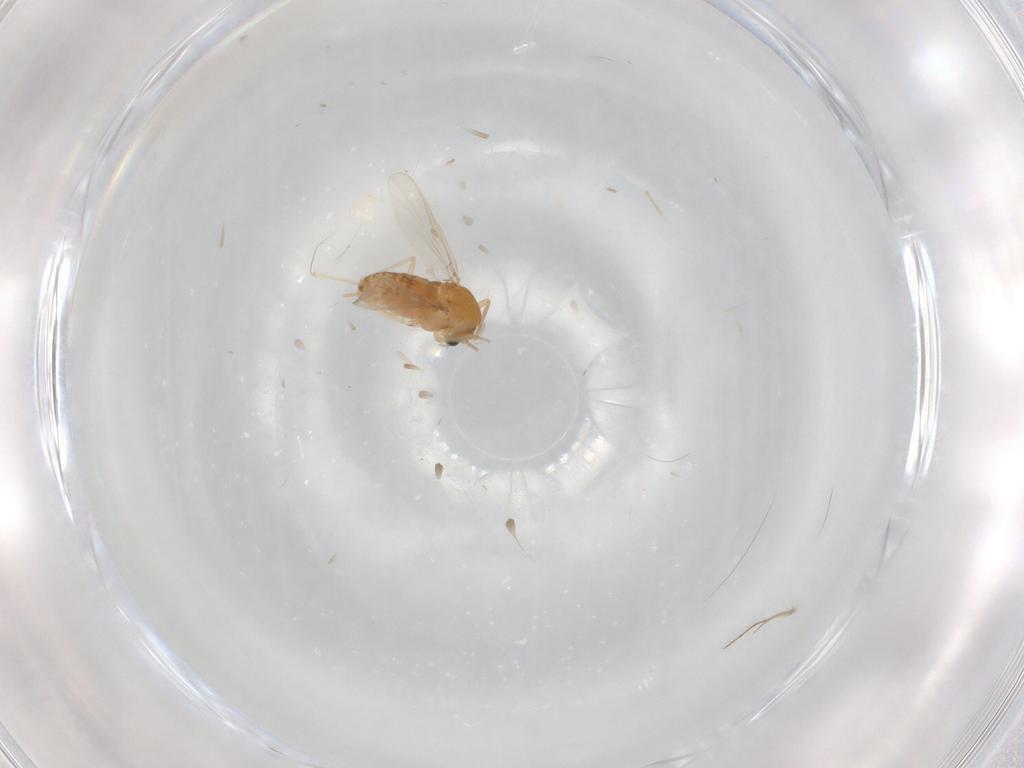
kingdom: Animalia
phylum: Arthropoda
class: Insecta
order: Diptera
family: Chironomidae
